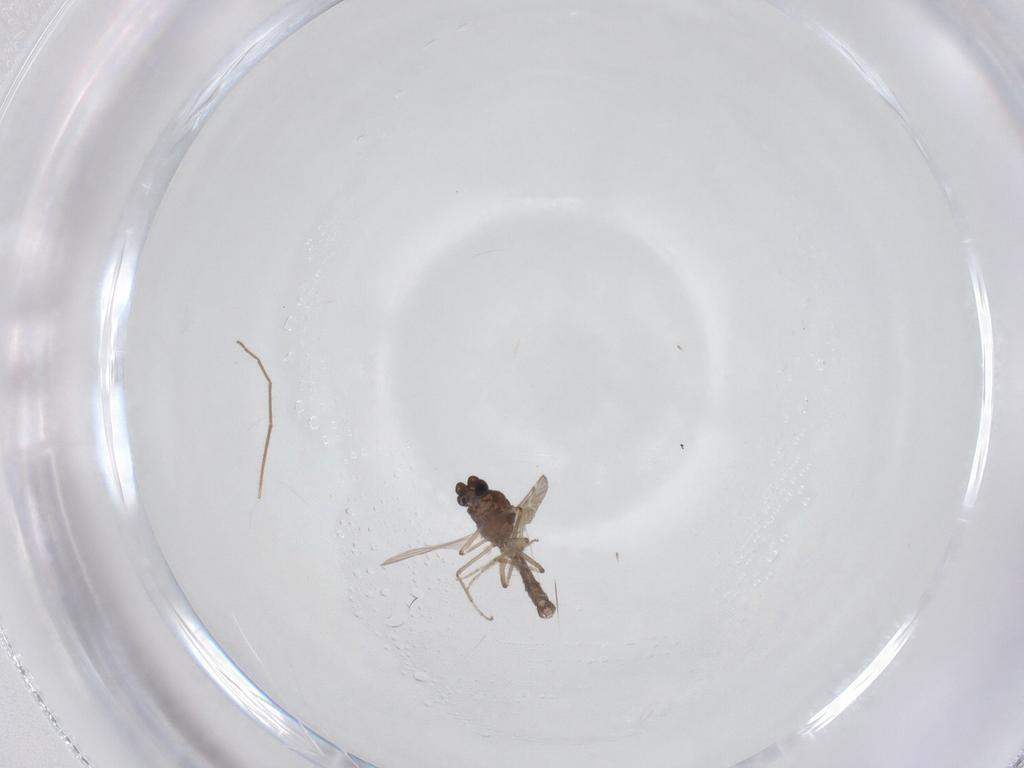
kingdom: Animalia
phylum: Arthropoda
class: Insecta
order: Diptera
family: Chironomidae
